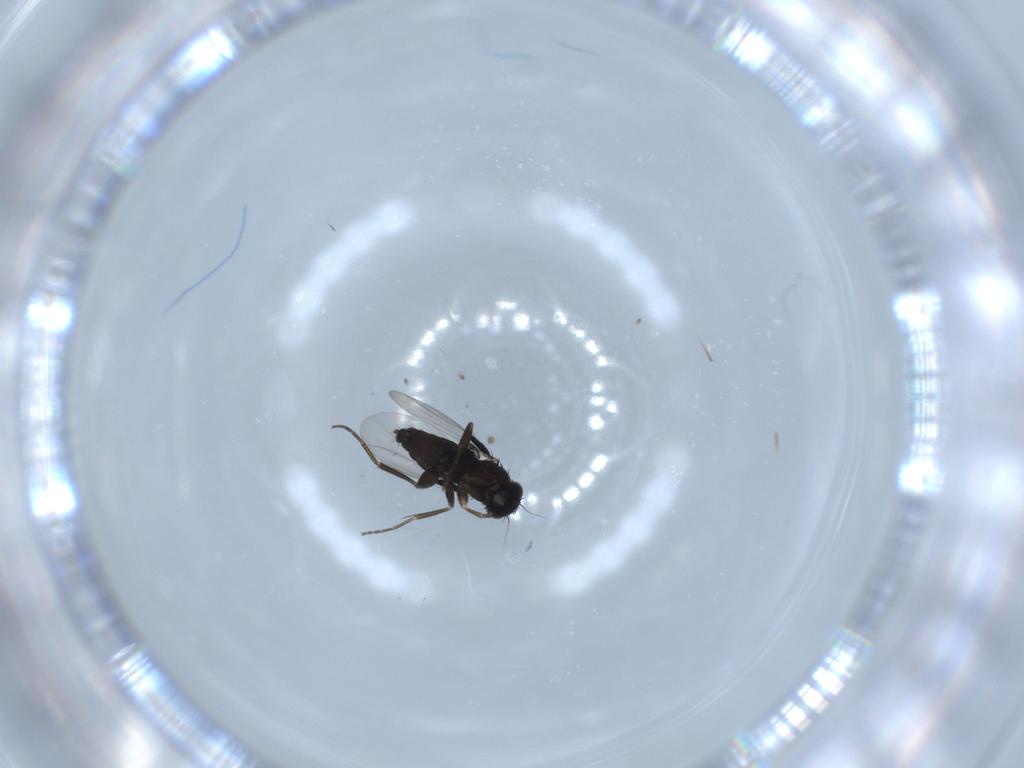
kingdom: Animalia
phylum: Arthropoda
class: Insecta
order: Diptera
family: Phoridae
